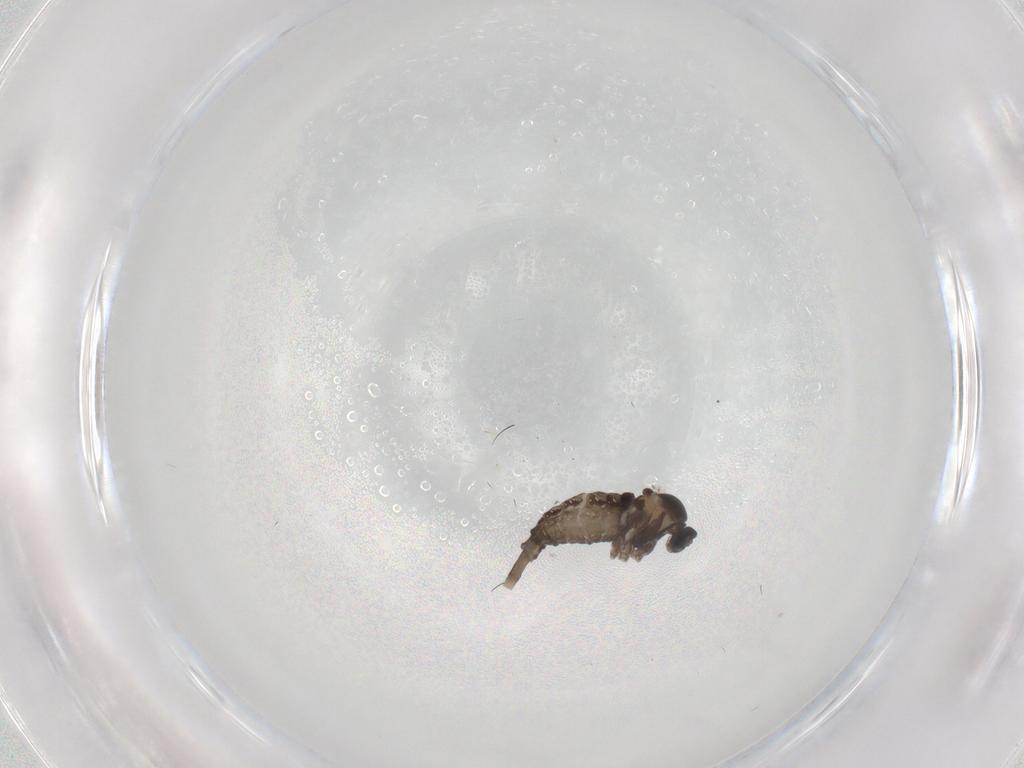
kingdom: Animalia
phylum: Arthropoda
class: Insecta
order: Diptera
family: Cecidomyiidae
